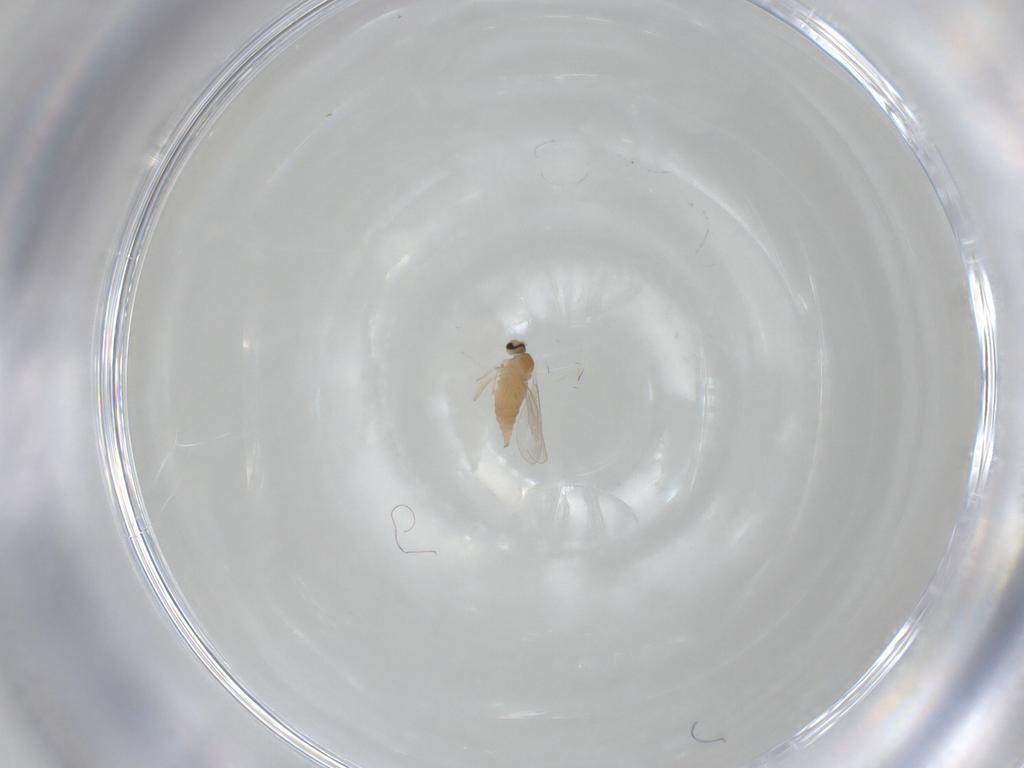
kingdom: Animalia
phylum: Arthropoda
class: Insecta
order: Diptera
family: Cecidomyiidae
